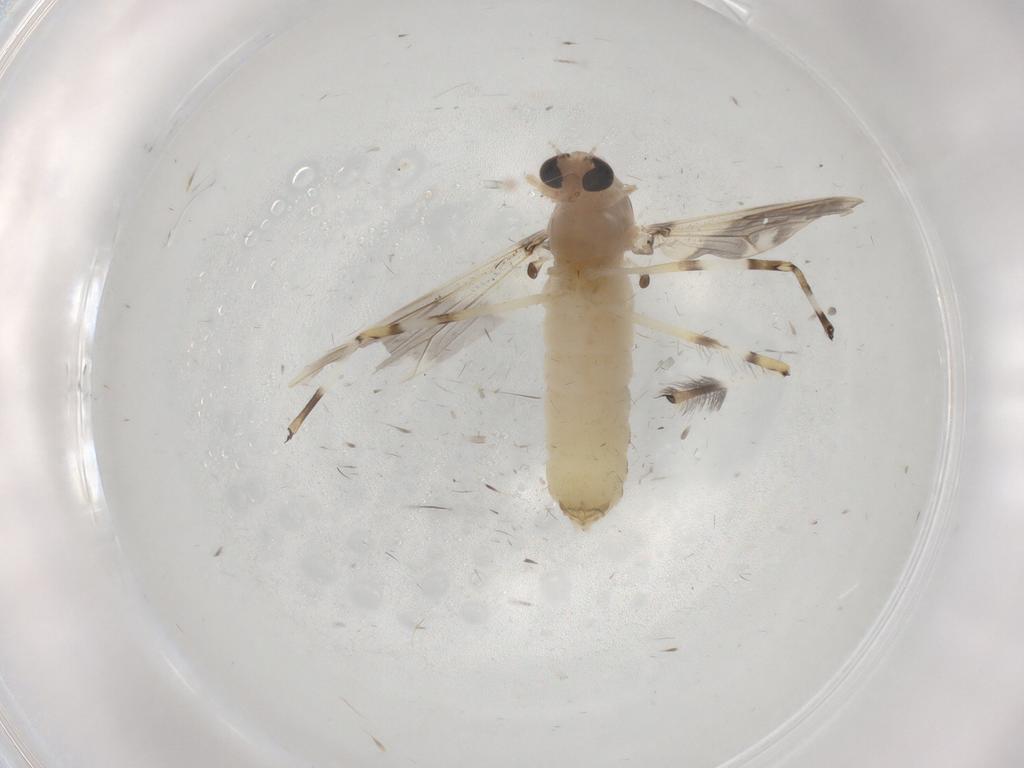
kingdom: Animalia
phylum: Arthropoda
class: Insecta
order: Diptera
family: Chironomidae
